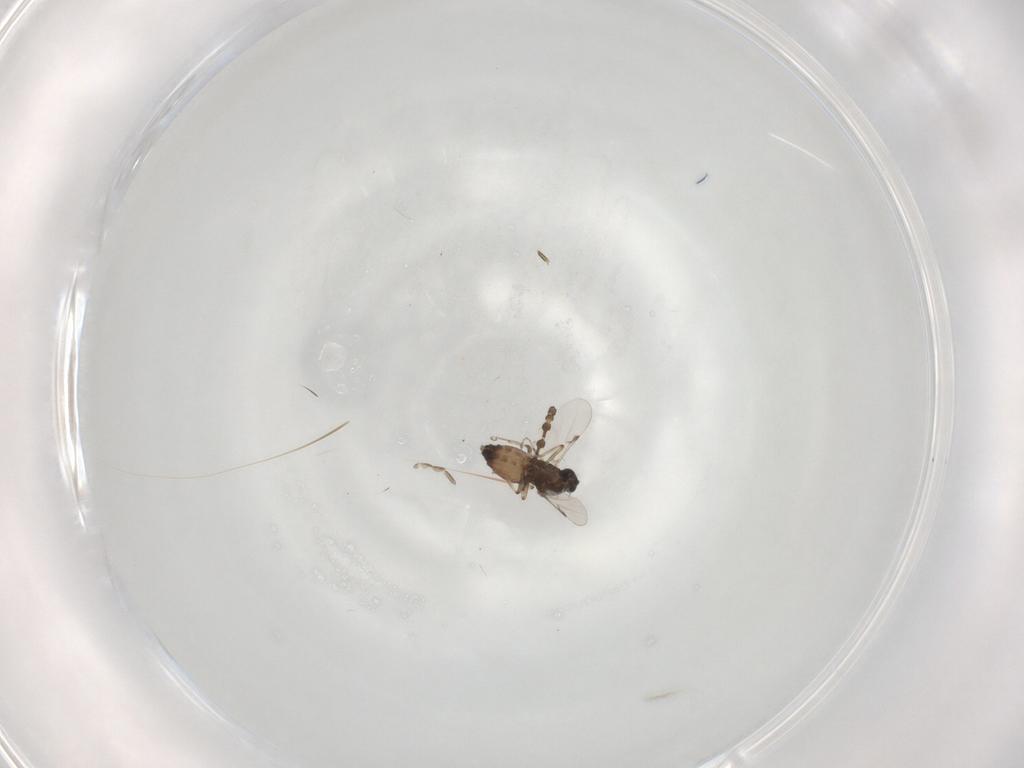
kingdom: Animalia
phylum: Arthropoda
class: Insecta
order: Diptera
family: Ceratopogonidae
